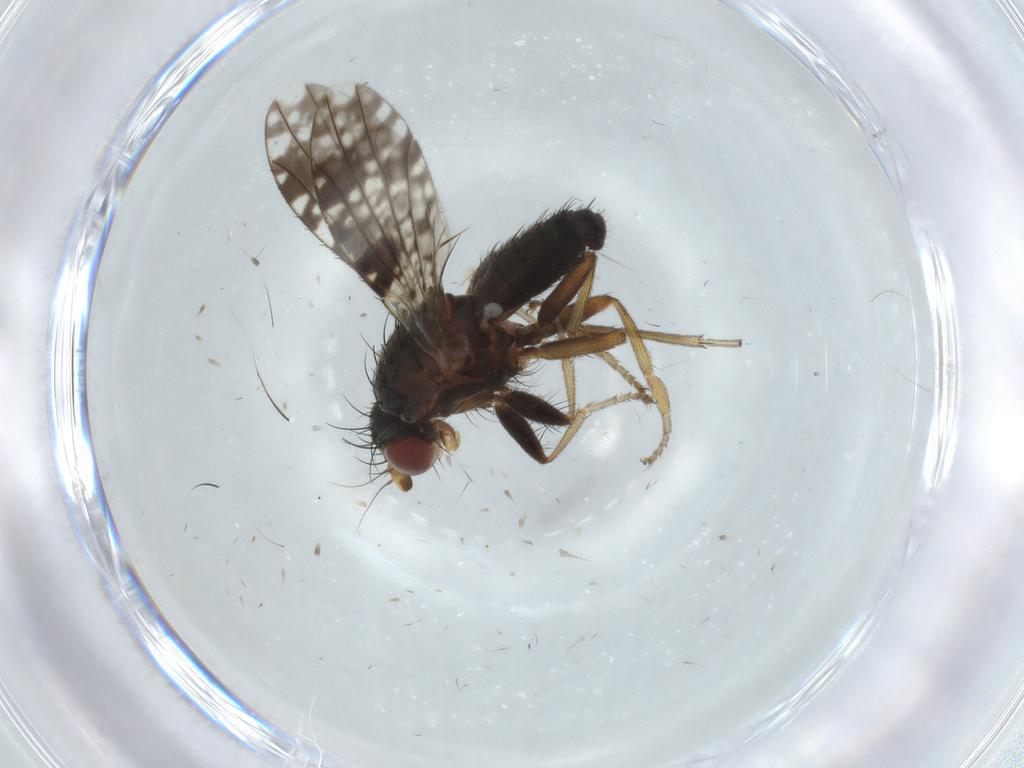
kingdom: Animalia
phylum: Arthropoda
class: Insecta
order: Diptera
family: Tephritidae
